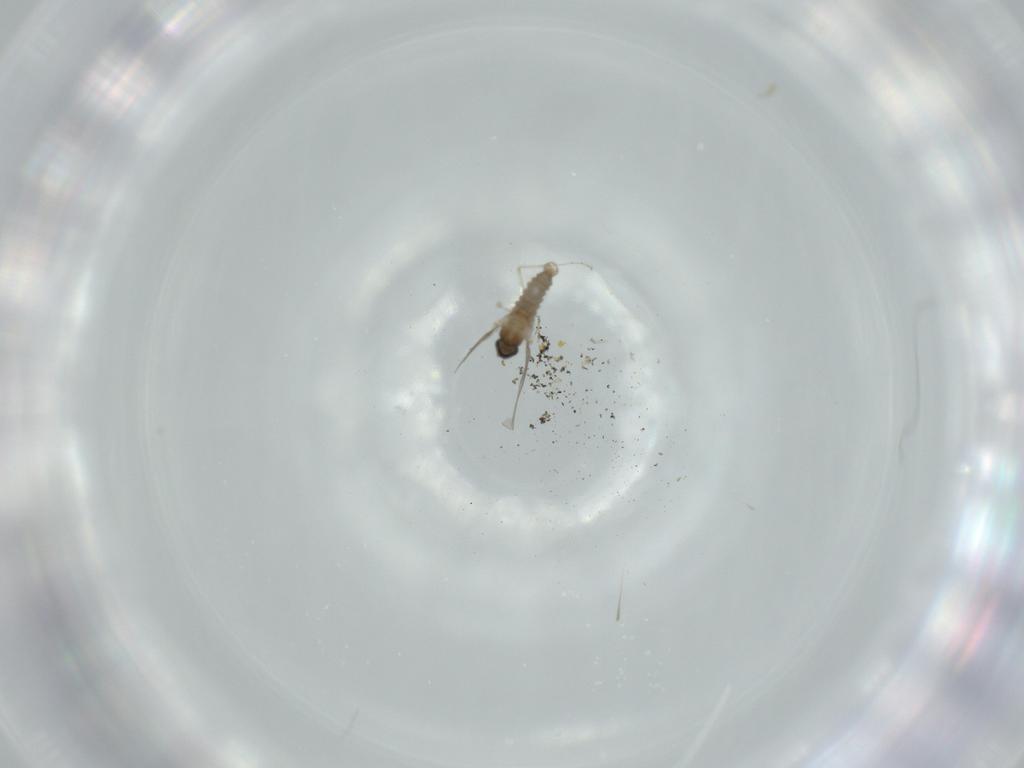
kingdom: Animalia
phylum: Arthropoda
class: Insecta
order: Diptera
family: Cecidomyiidae
